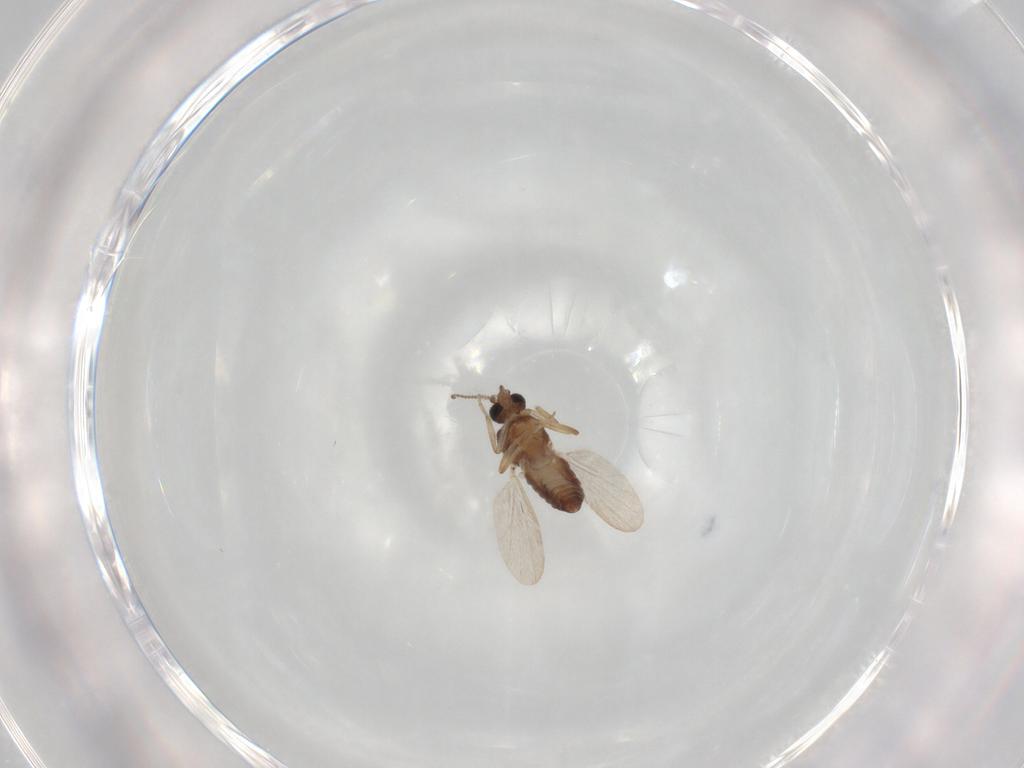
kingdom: Animalia
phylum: Arthropoda
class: Insecta
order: Diptera
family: Ceratopogonidae
